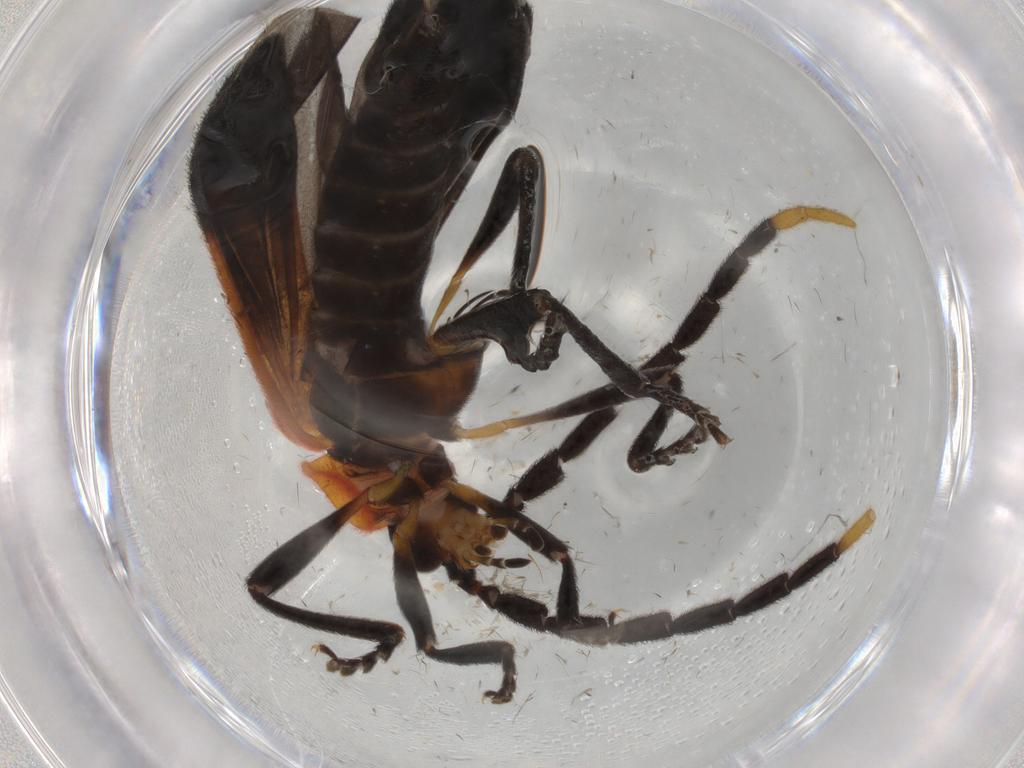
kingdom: Animalia
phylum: Arthropoda
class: Insecta
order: Coleoptera
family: Lycidae
